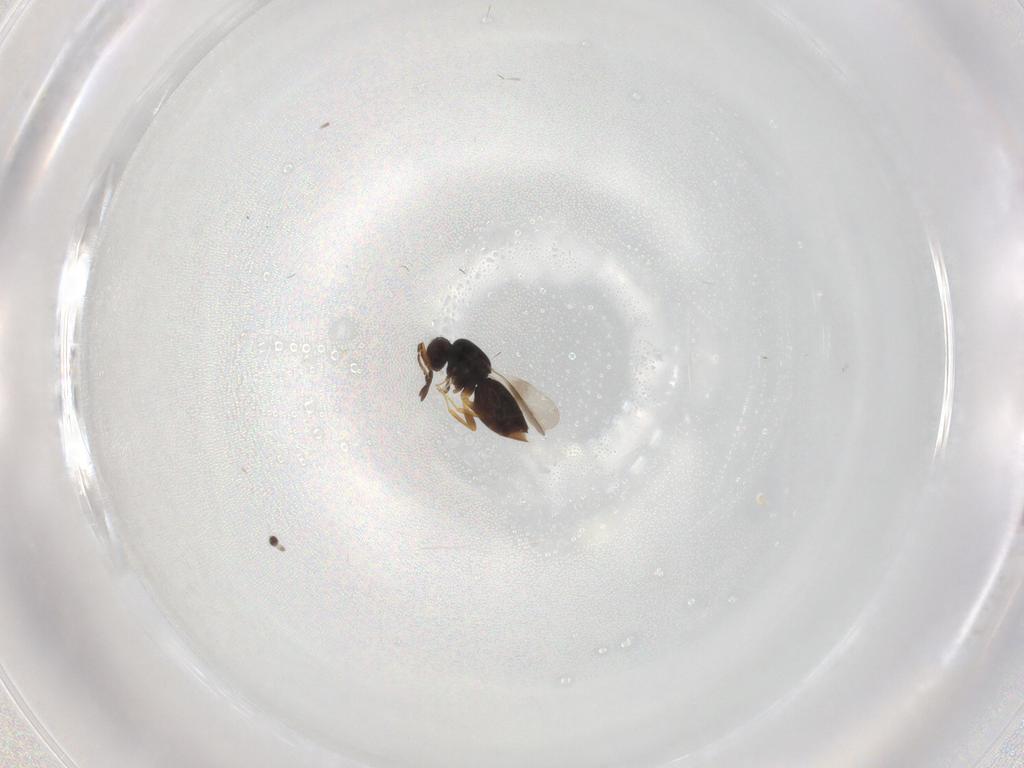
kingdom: Animalia
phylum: Arthropoda
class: Insecta
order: Hymenoptera
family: Ichneumonidae
